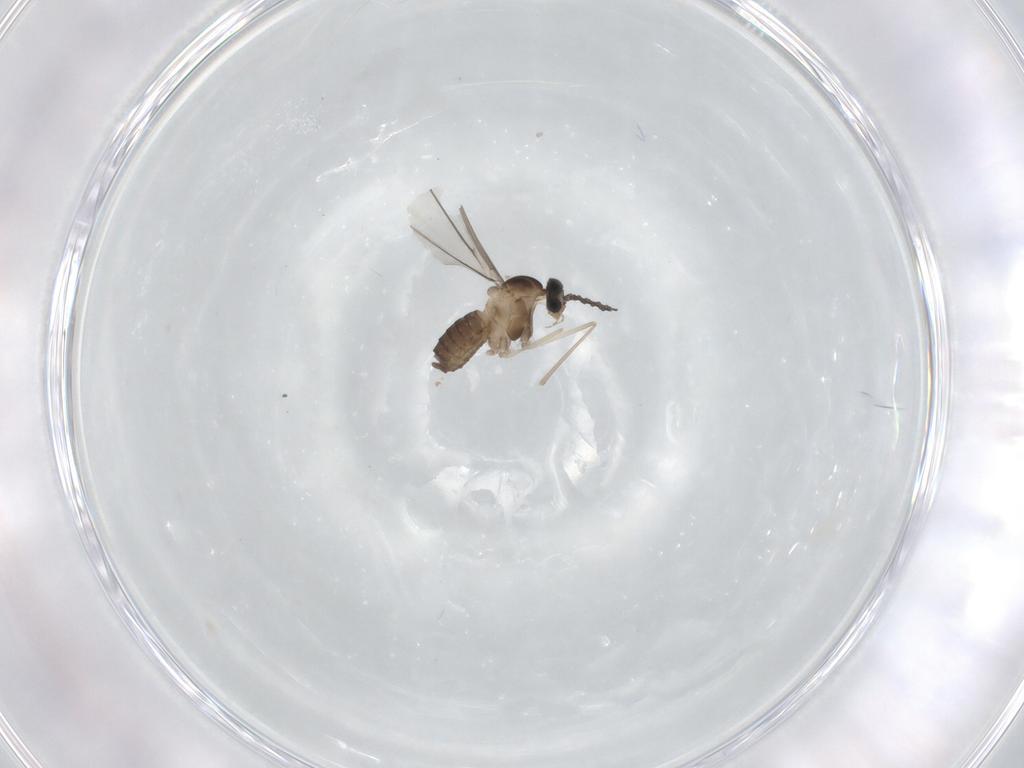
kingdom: Animalia
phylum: Arthropoda
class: Insecta
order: Diptera
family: Cecidomyiidae
